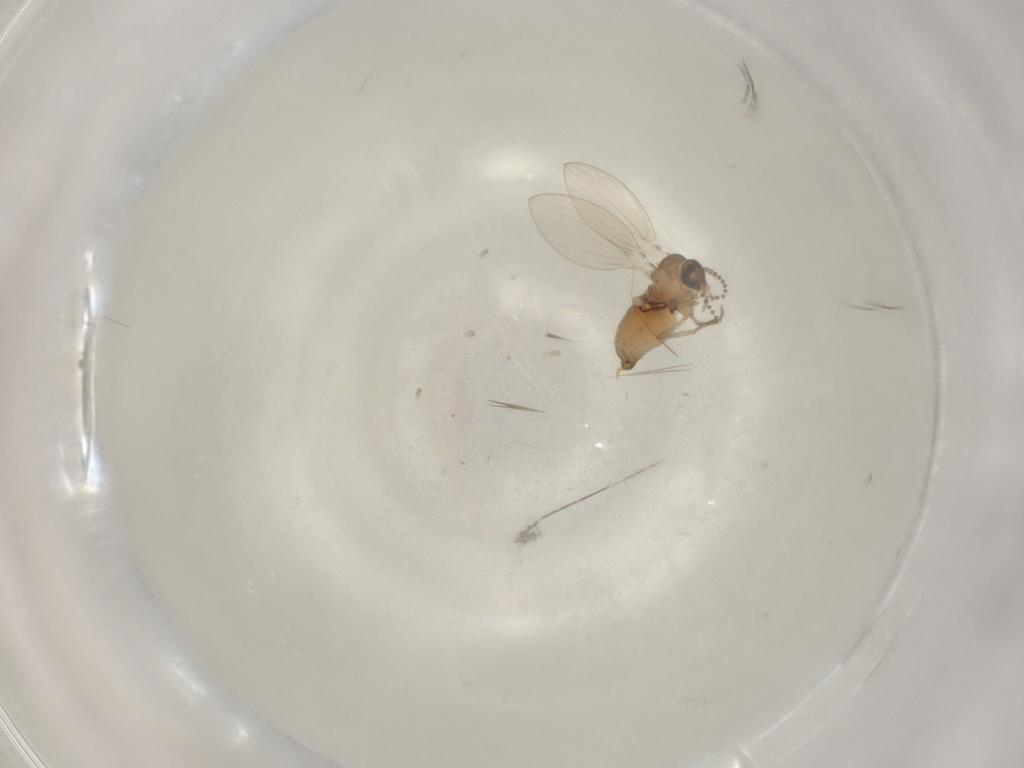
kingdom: Animalia
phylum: Arthropoda
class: Insecta
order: Diptera
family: Psychodidae
